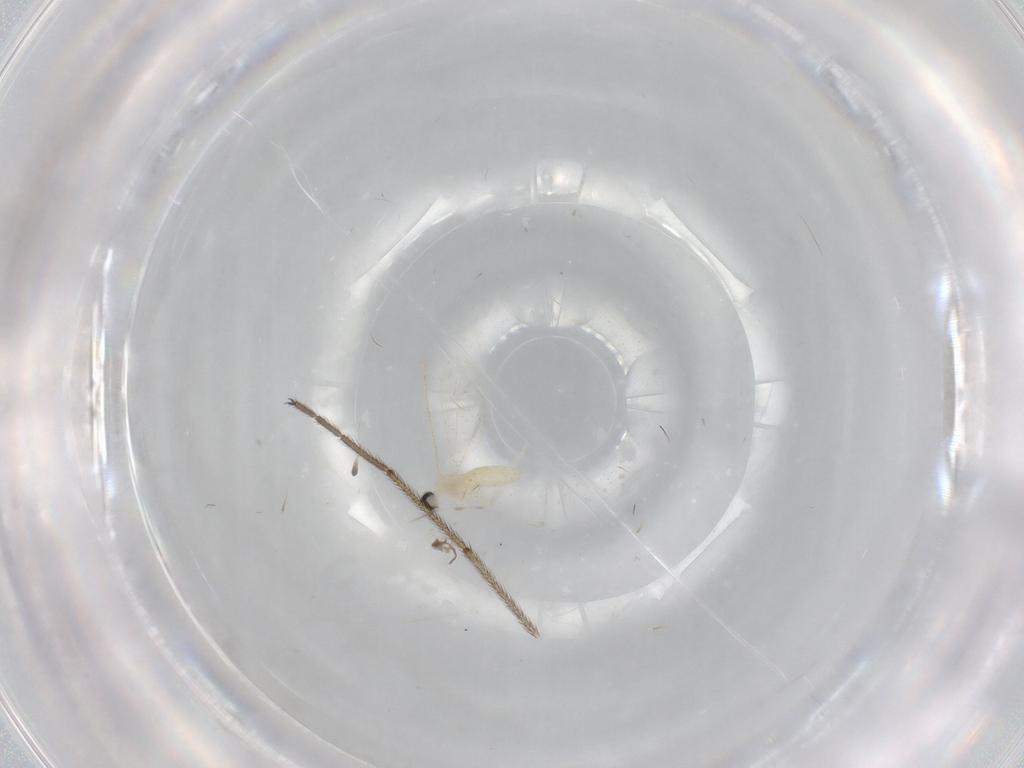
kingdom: Animalia
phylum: Arthropoda
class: Insecta
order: Diptera
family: Cecidomyiidae
